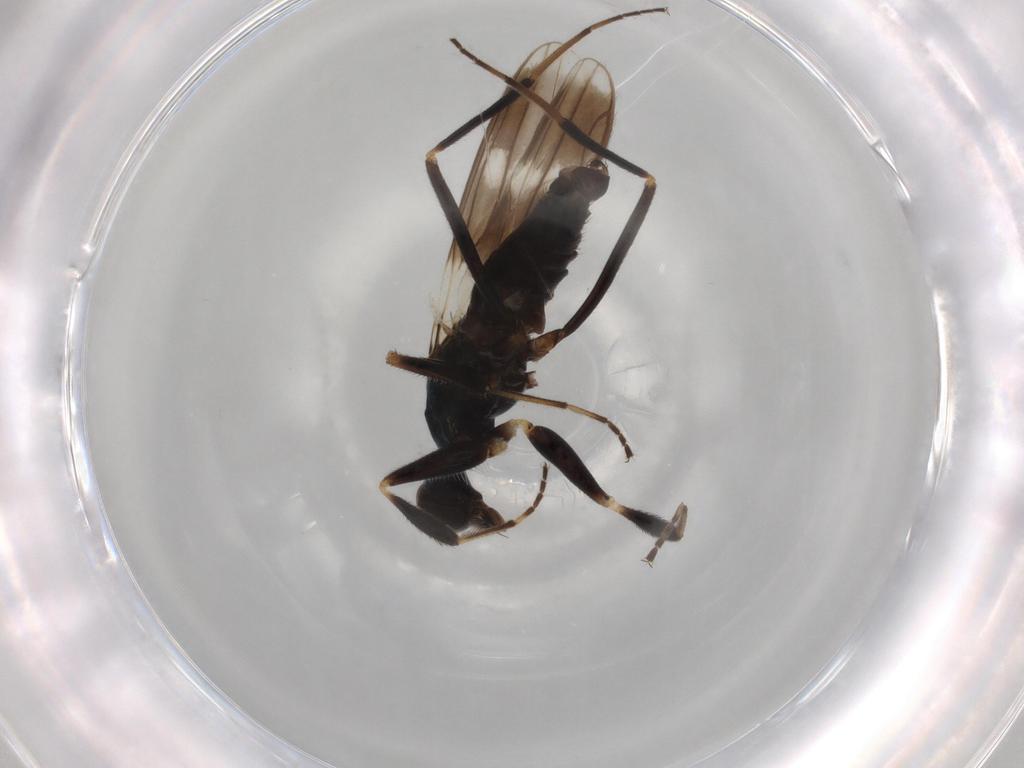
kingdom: Animalia
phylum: Arthropoda
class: Insecta
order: Diptera
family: Hybotidae
